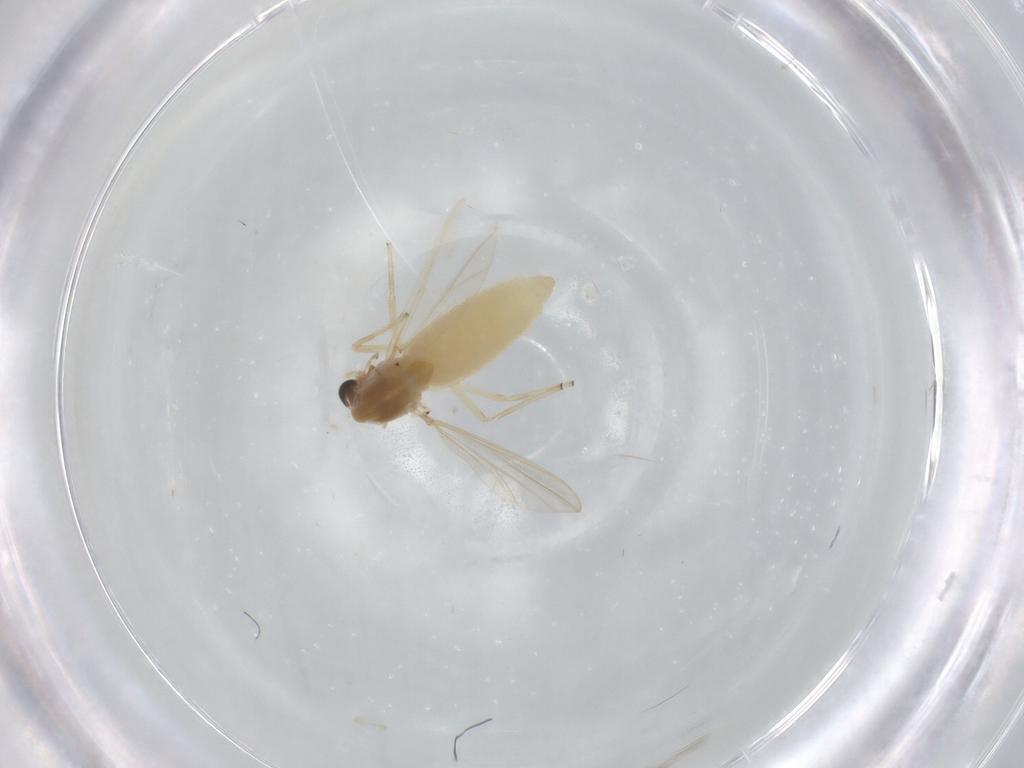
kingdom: Animalia
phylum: Arthropoda
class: Insecta
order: Diptera
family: Chironomidae
